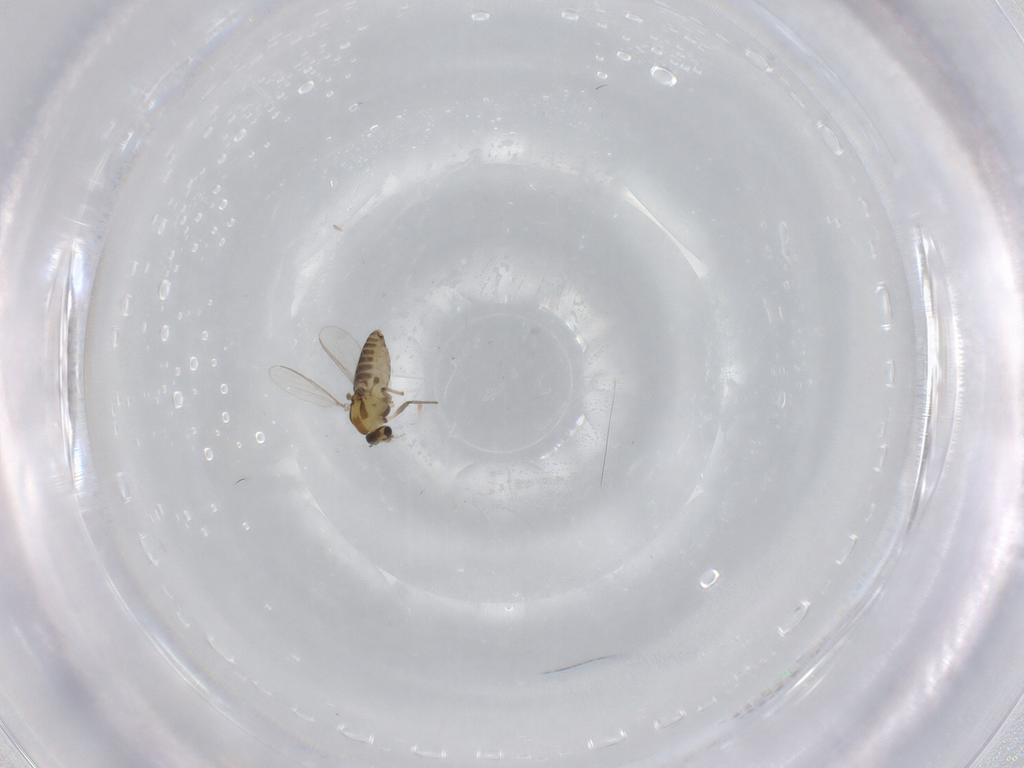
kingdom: Animalia
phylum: Arthropoda
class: Insecta
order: Diptera
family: Chironomidae
